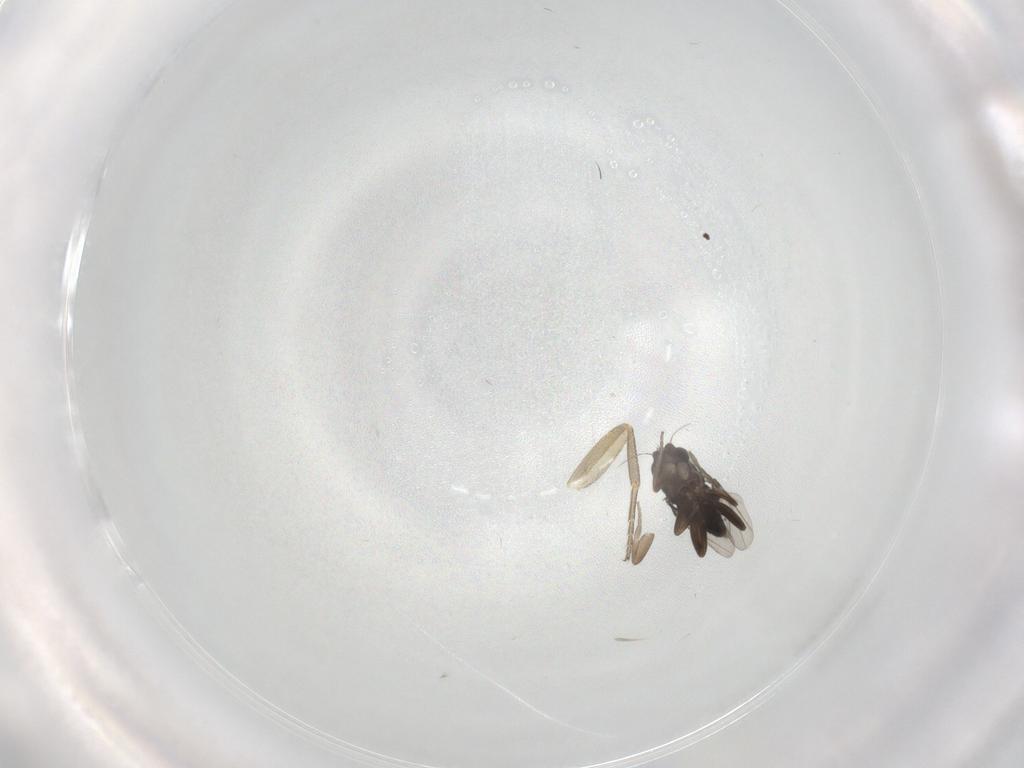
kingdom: Animalia
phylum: Arthropoda
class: Insecta
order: Diptera
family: Phoridae
